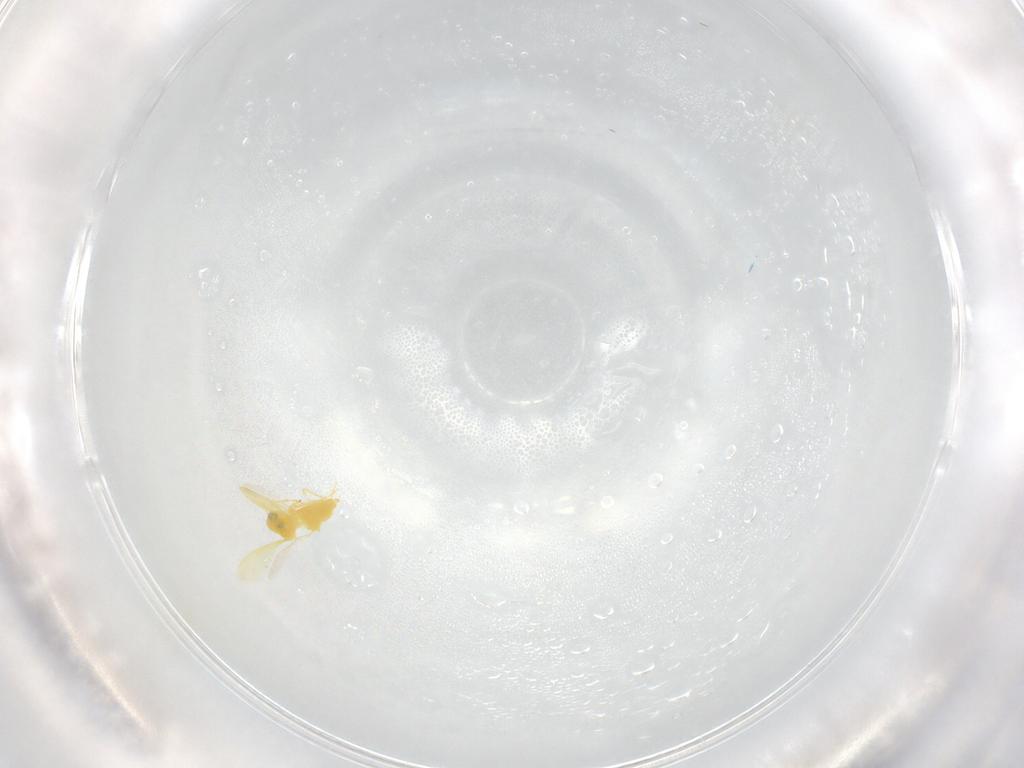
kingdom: Animalia
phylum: Arthropoda
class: Insecta
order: Hemiptera
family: Aleyrodidae
